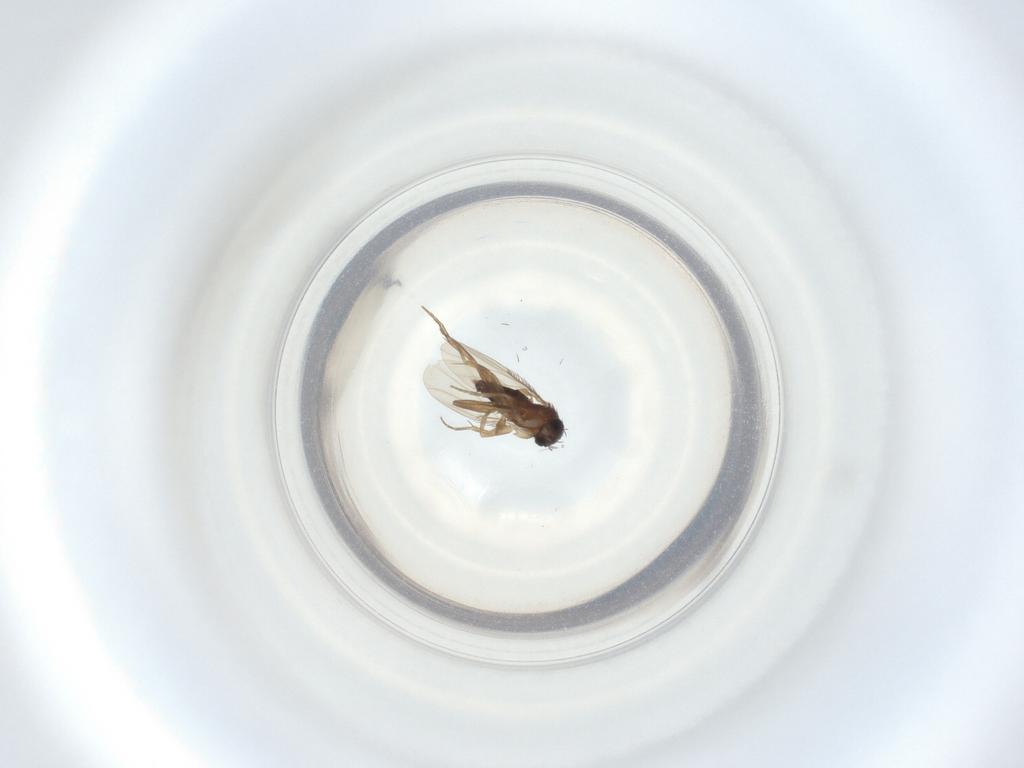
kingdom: Animalia
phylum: Arthropoda
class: Insecta
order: Diptera
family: Phoridae
